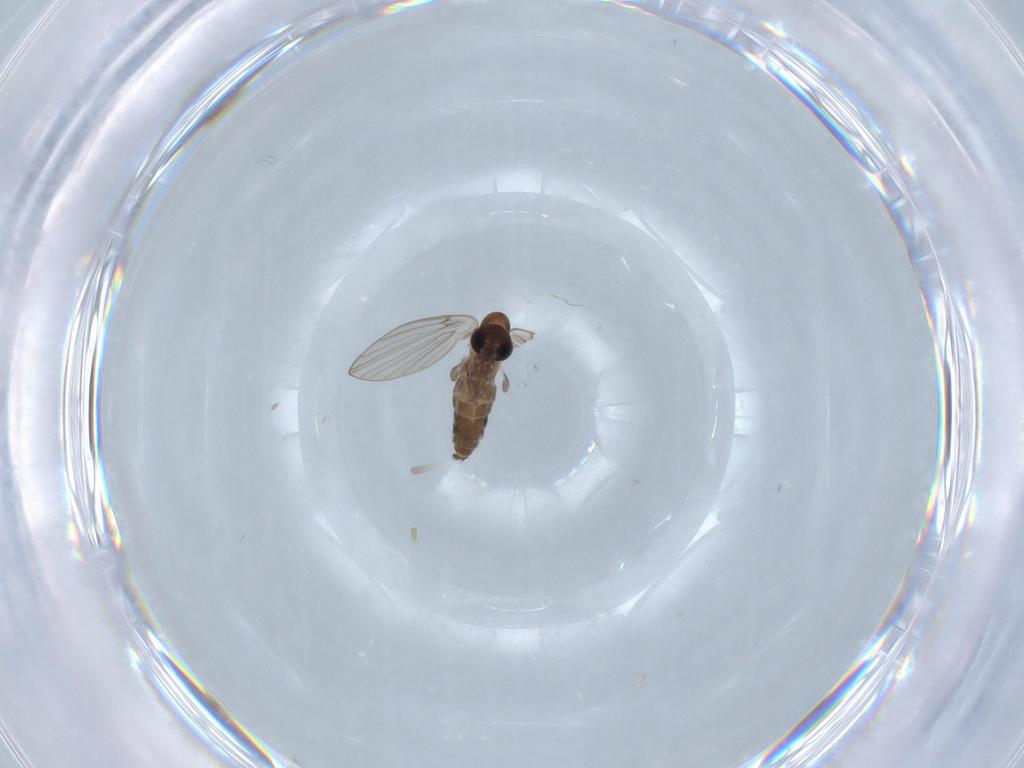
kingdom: Animalia
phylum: Arthropoda
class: Insecta
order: Diptera
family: Psychodidae
